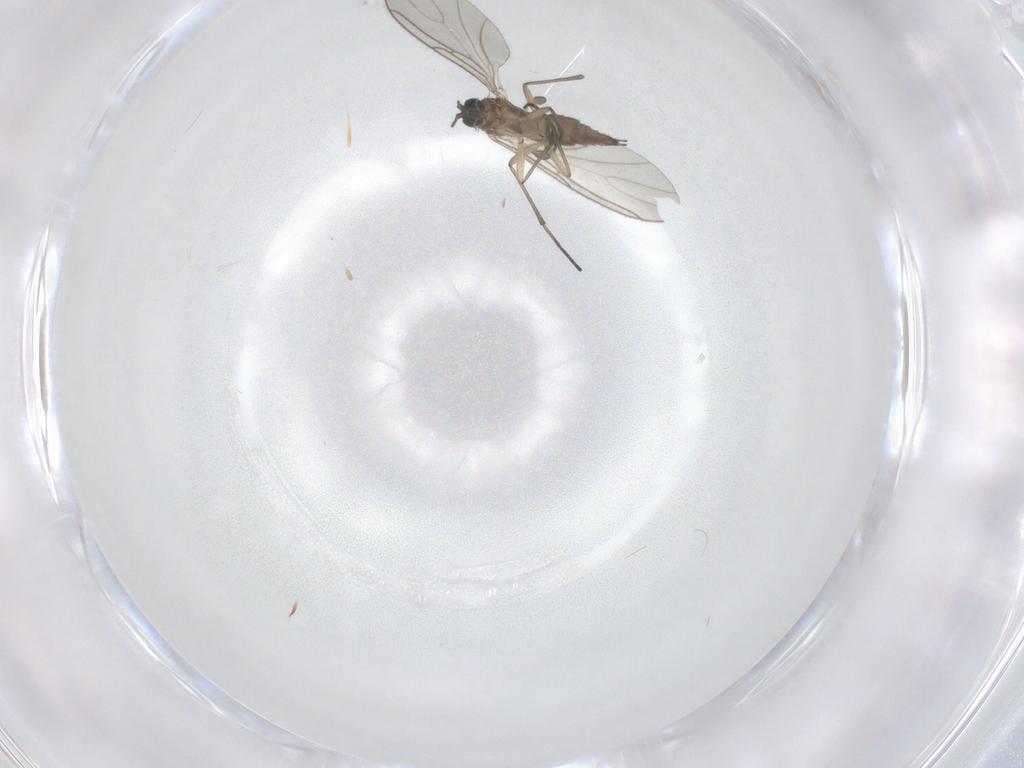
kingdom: Animalia
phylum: Arthropoda
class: Insecta
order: Diptera
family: Sciaridae
